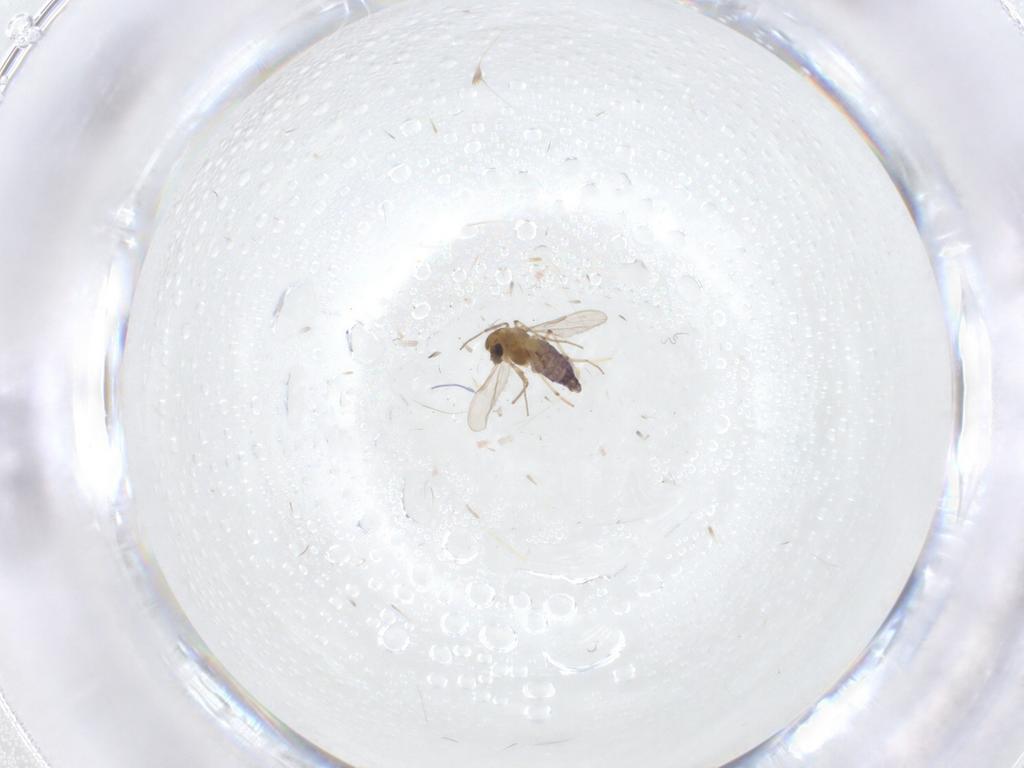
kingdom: Animalia
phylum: Arthropoda
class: Insecta
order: Diptera
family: Chironomidae
